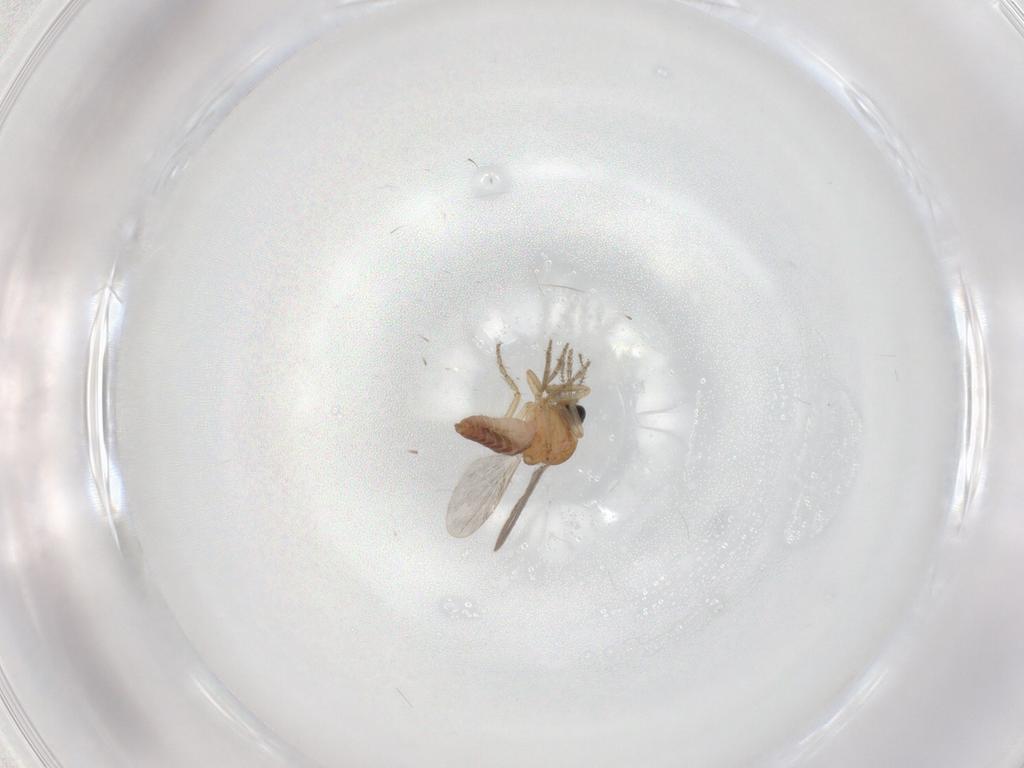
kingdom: Animalia
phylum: Arthropoda
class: Insecta
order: Diptera
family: Ceratopogonidae
